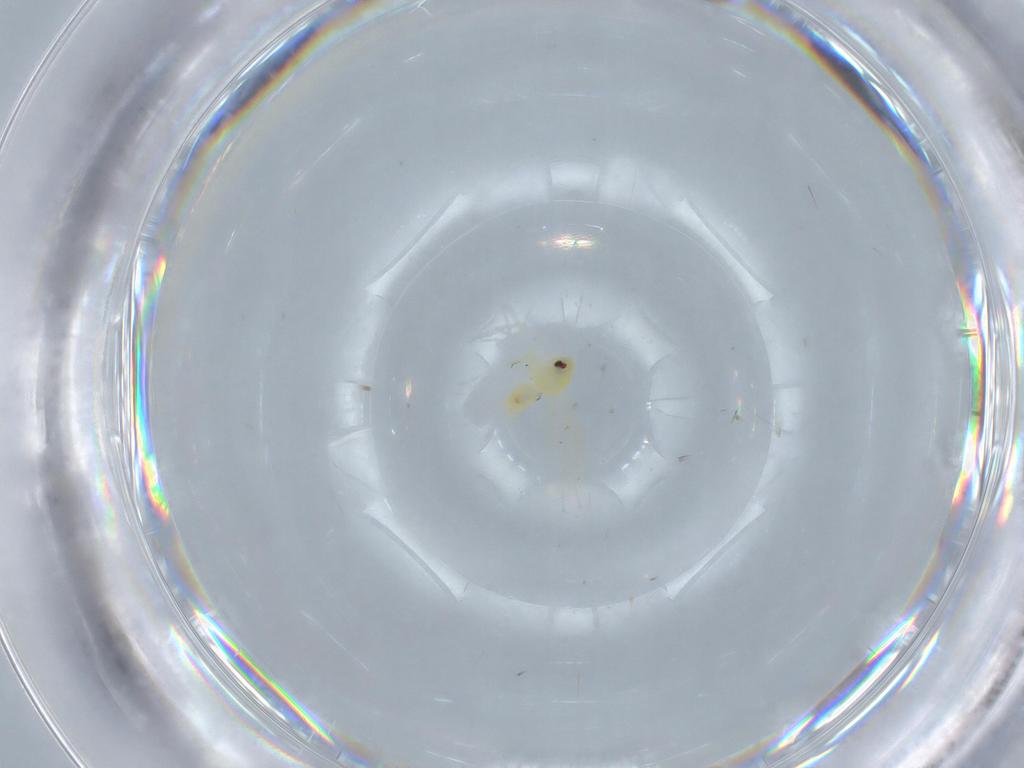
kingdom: Animalia
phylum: Arthropoda
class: Insecta
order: Hemiptera
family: Aleyrodidae
